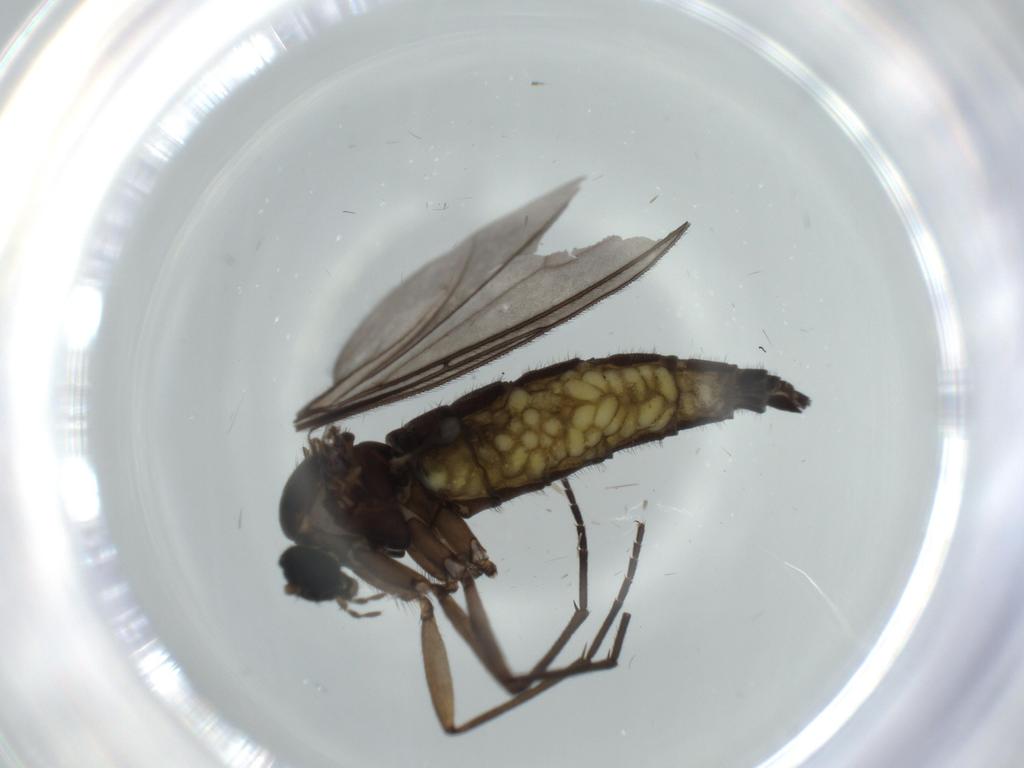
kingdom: Animalia
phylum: Arthropoda
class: Insecta
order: Diptera
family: Sciaridae
